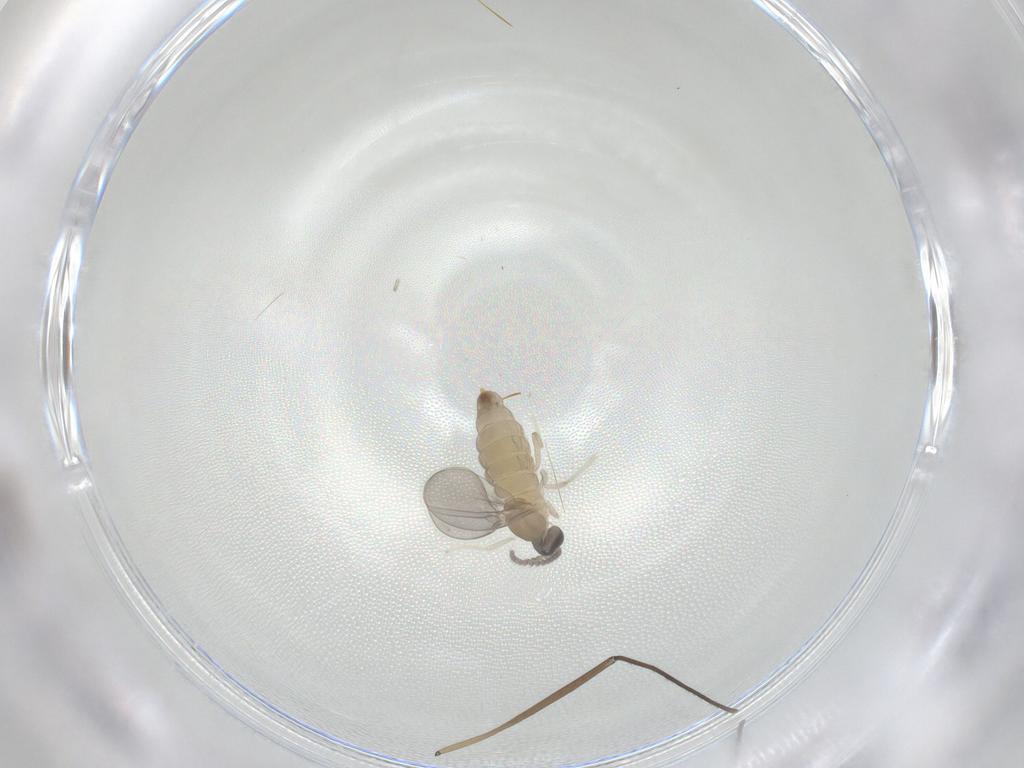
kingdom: Animalia
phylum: Arthropoda
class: Insecta
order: Diptera
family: Cecidomyiidae
